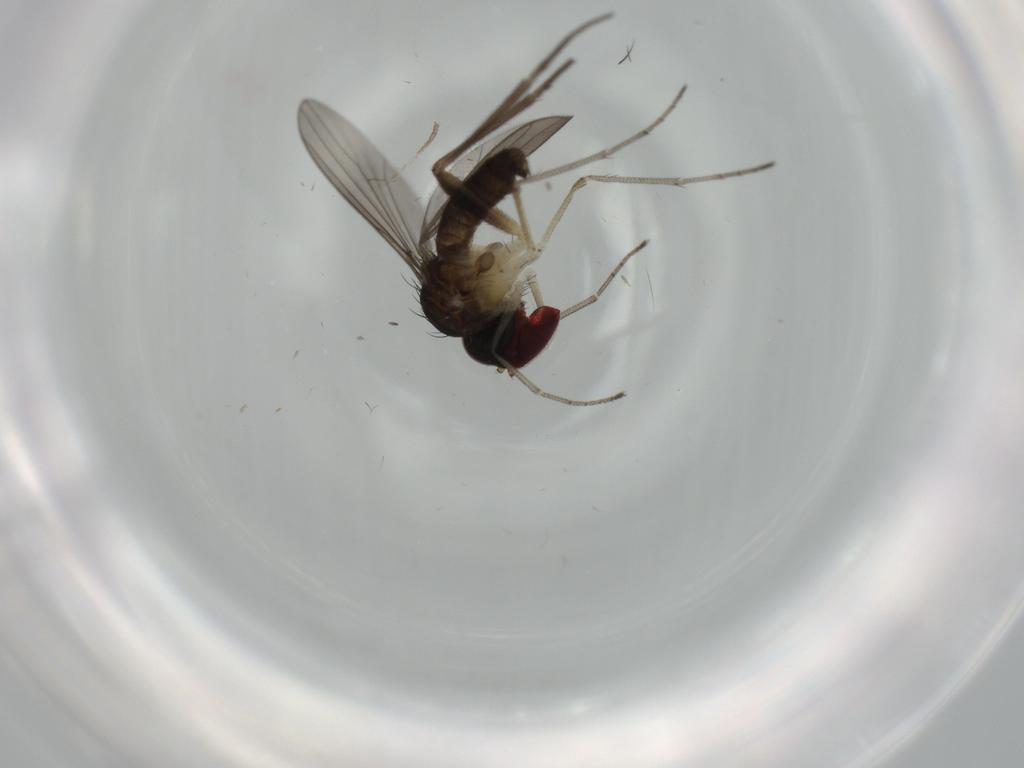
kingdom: Animalia
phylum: Arthropoda
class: Insecta
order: Diptera
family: Dolichopodidae
